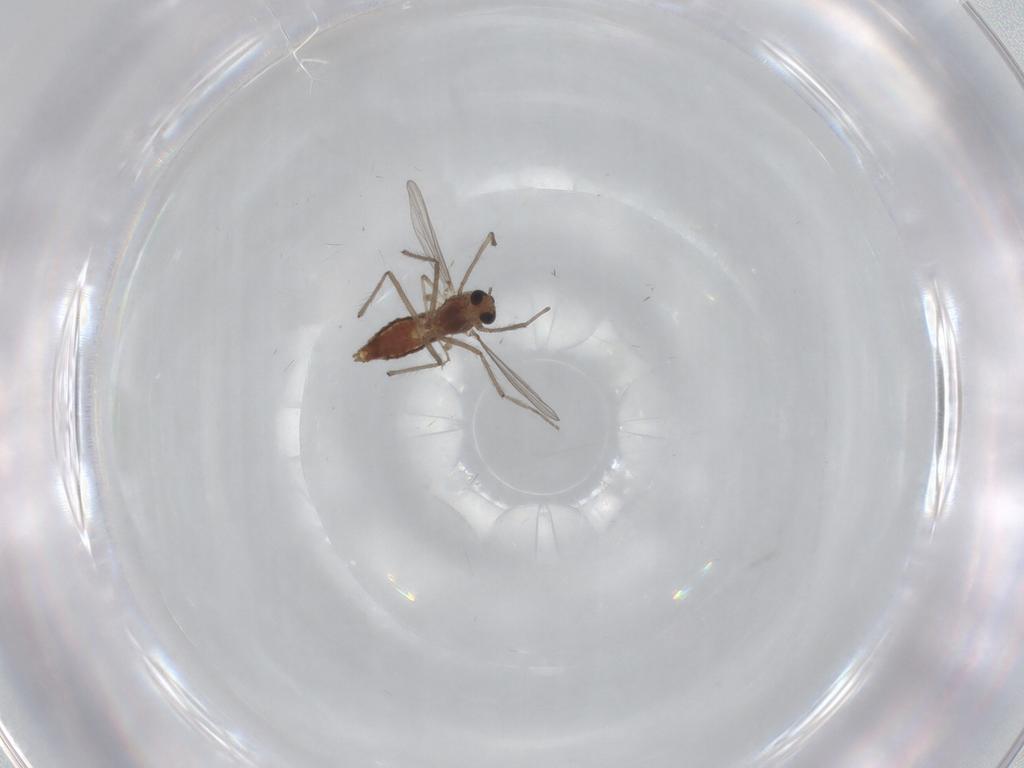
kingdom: Animalia
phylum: Arthropoda
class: Insecta
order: Diptera
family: Chironomidae
